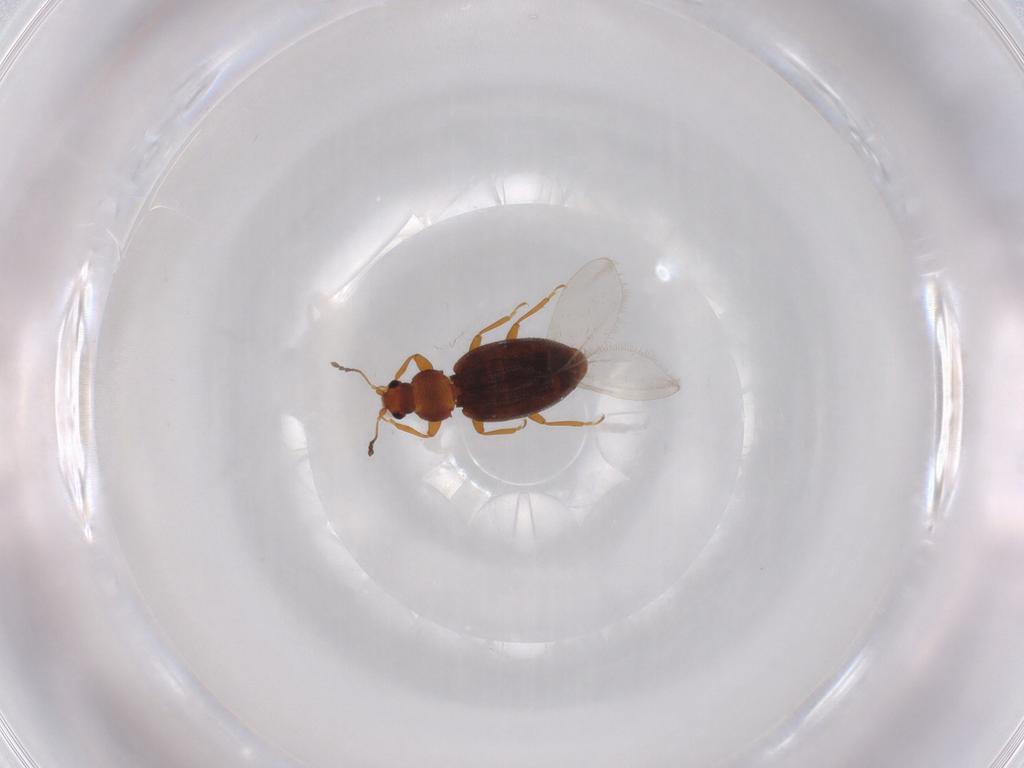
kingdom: Animalia
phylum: Arthropoda
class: Insecta
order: Coleoptera
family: Latridiidae
